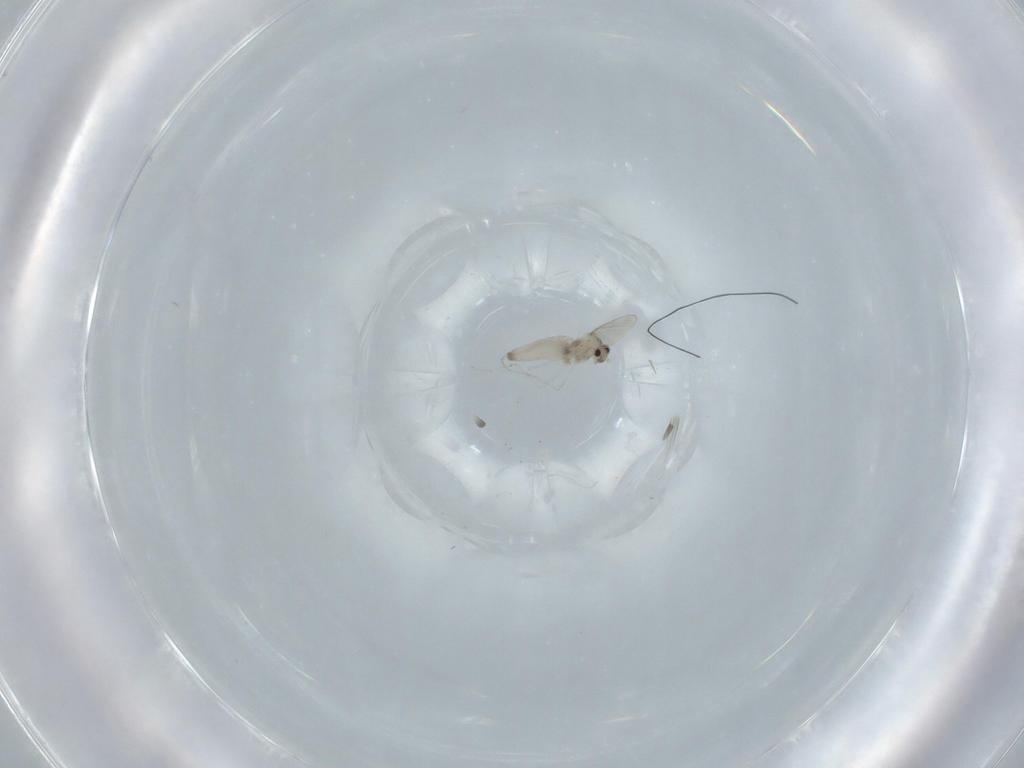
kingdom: Animalia
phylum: Arthropoda
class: Insecta
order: Diptera
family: Cecidomyiidae
